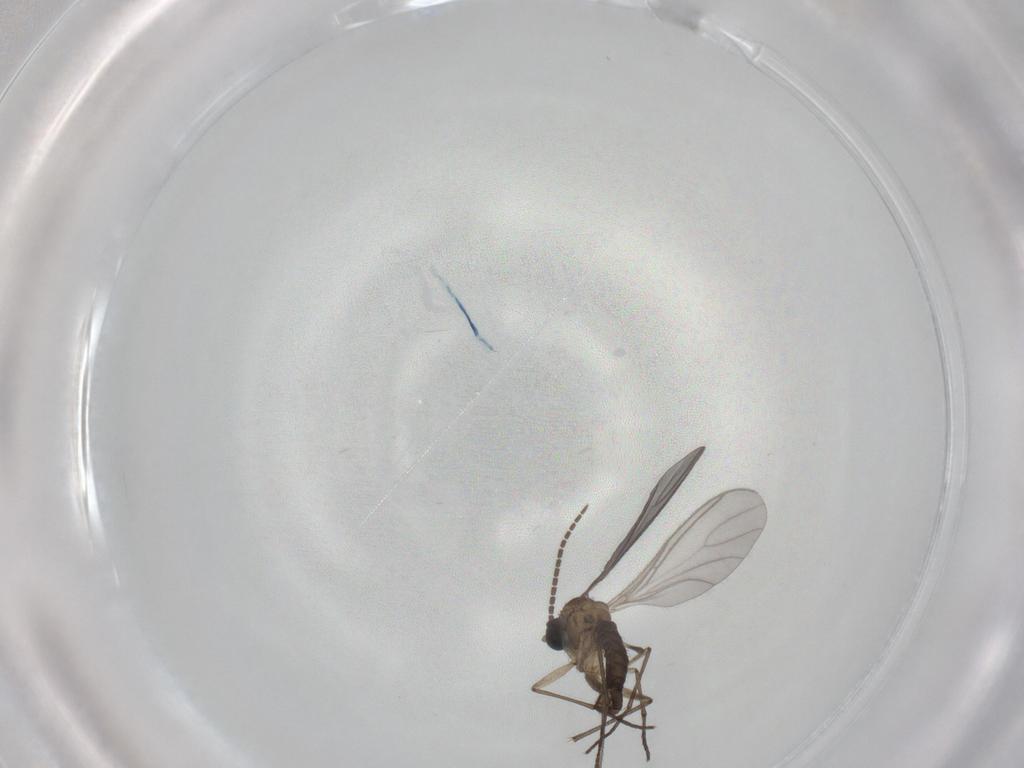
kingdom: Animalia
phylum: Arthropoda
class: Insecta
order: Diptera
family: Sciaridae
